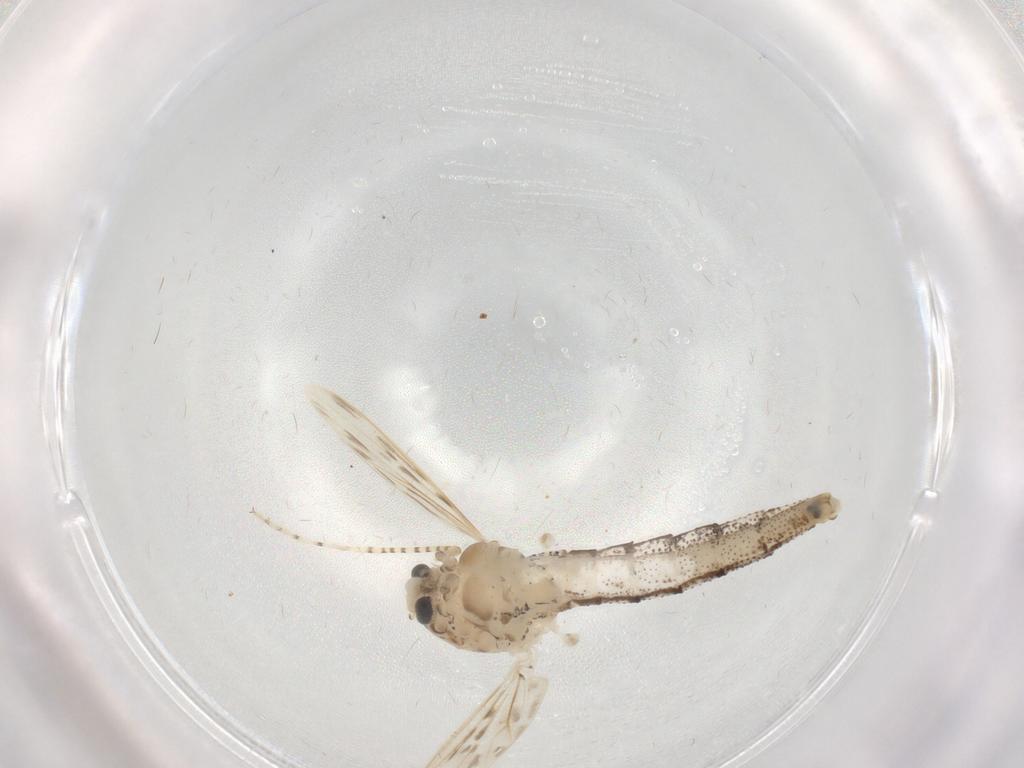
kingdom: Animalia
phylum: Arthropoda
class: Insecta
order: Diptera
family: Chaoboridae
